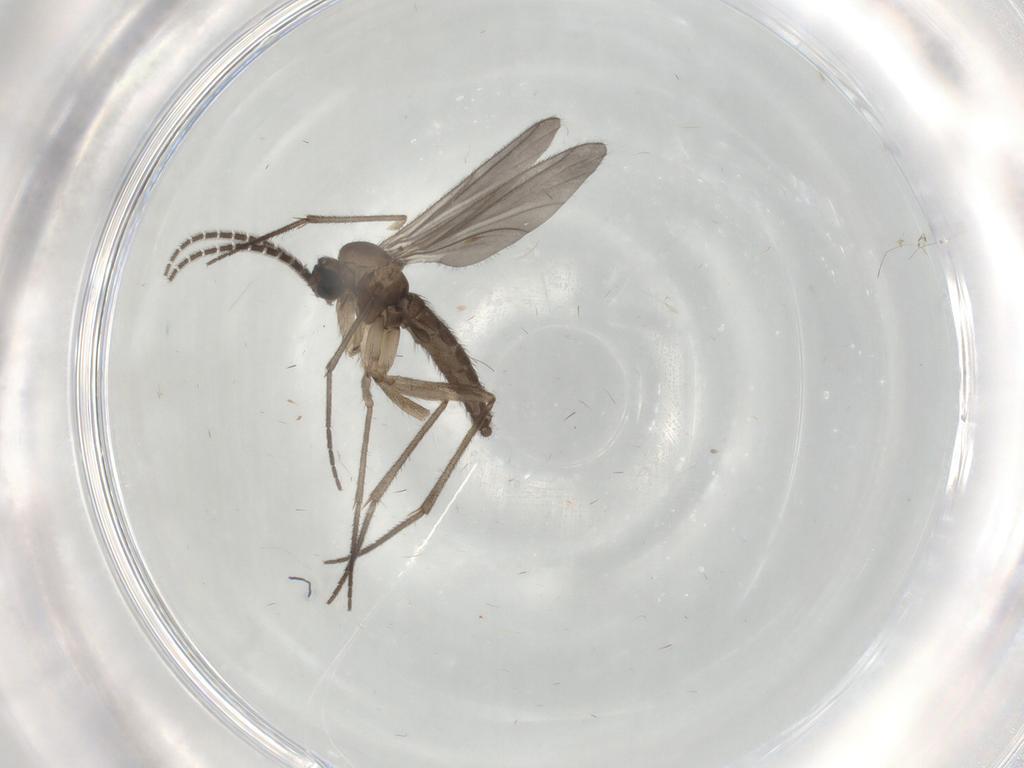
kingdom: Animalia
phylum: Arthropoda
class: Insecta
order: Diptera
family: Sciaridae
